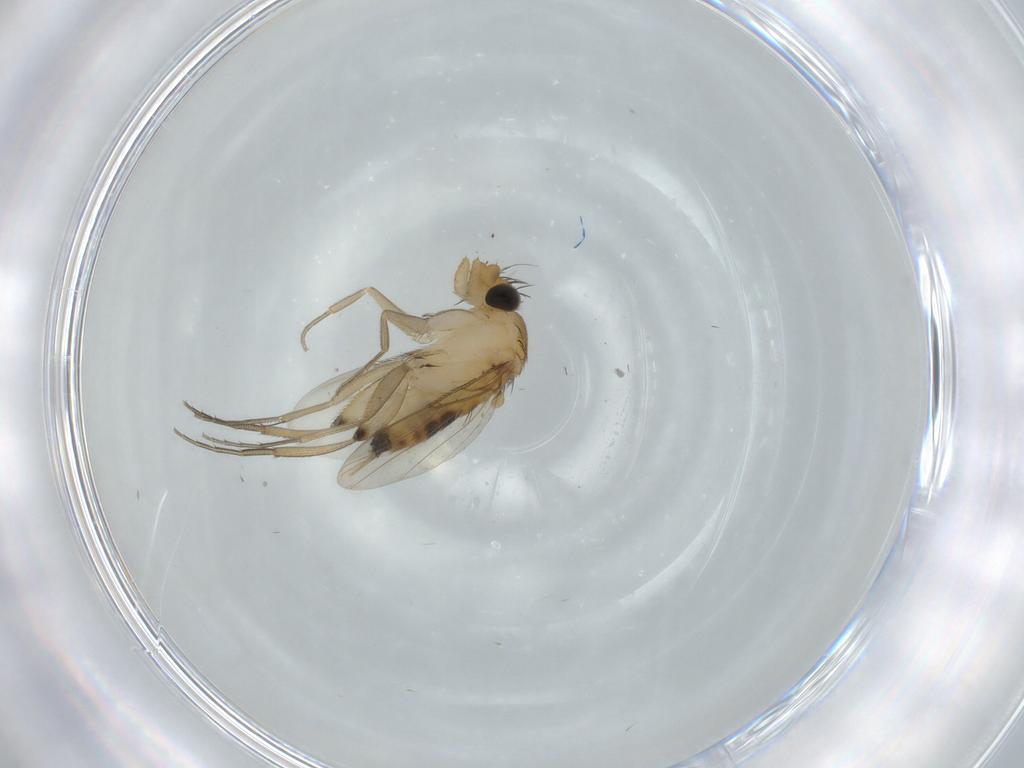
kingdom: Animalia
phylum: Arthropoda
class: Insecta
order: Diptera
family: Phoridae
